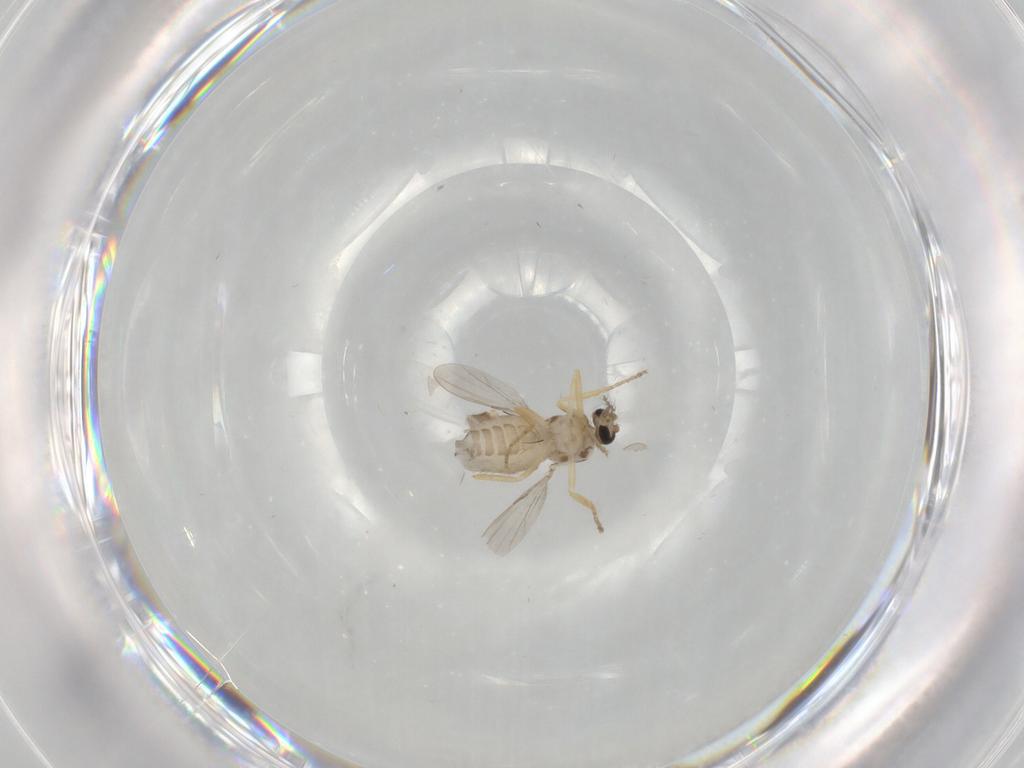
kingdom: Animalia
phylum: Arthropoda
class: Insecta
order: Diptera
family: Ceratopogonidae
